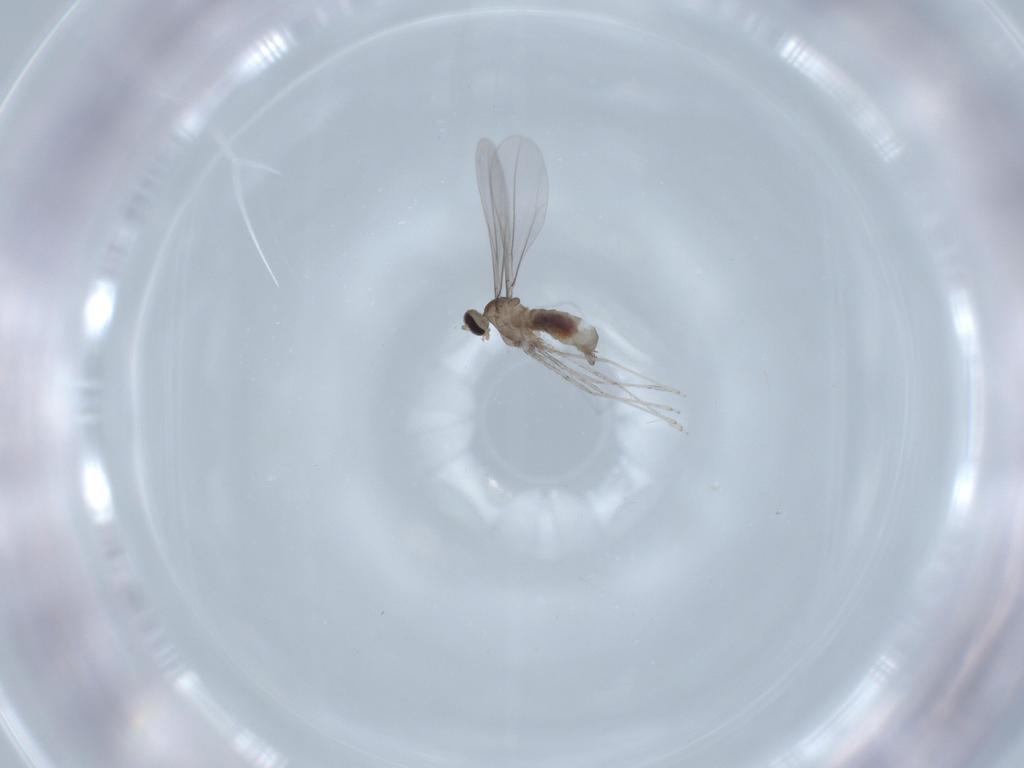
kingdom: Animalia
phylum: Arthropoda
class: Insecta
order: Diptera
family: Cecidomyiidae
